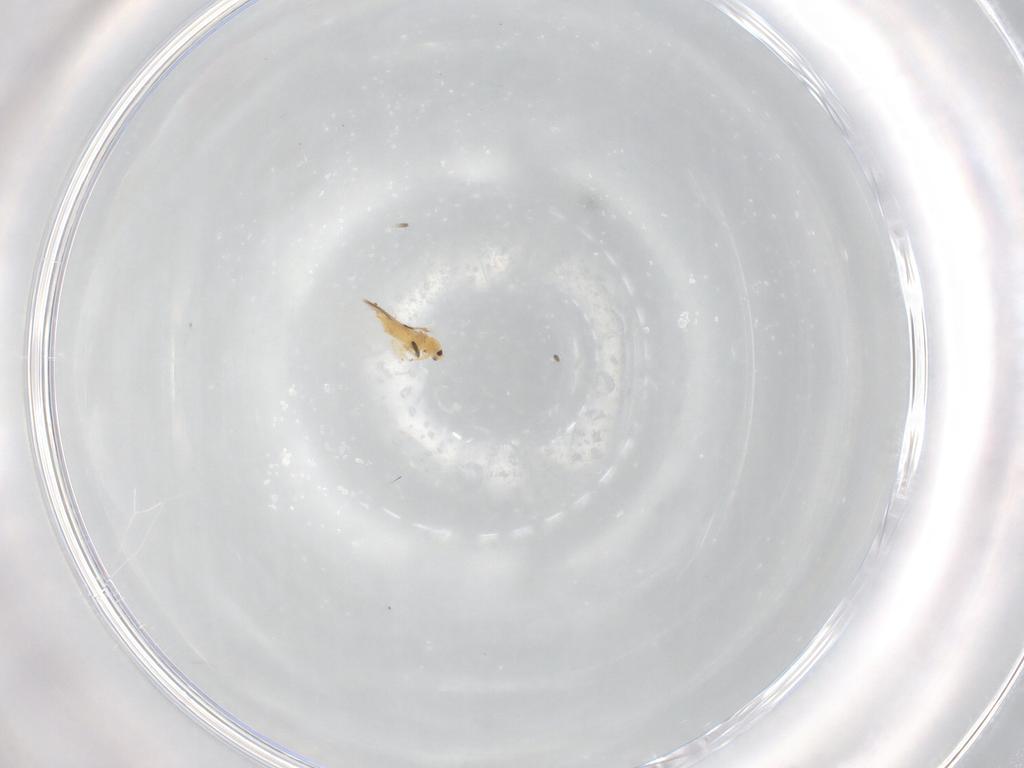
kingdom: Animalia
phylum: Arthropoda
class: Insecta
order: Thysanoptera
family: Thripidae
